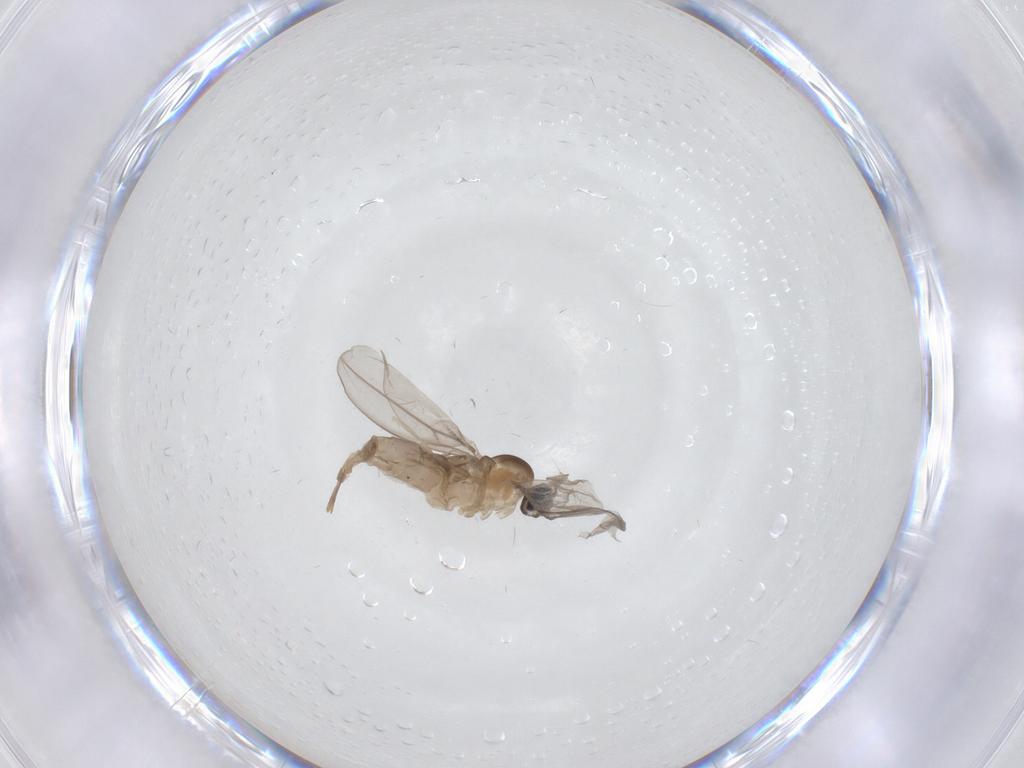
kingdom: Animalia
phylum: Arthropoda
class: Insecta
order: Diptera
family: Cecidomyiidae
